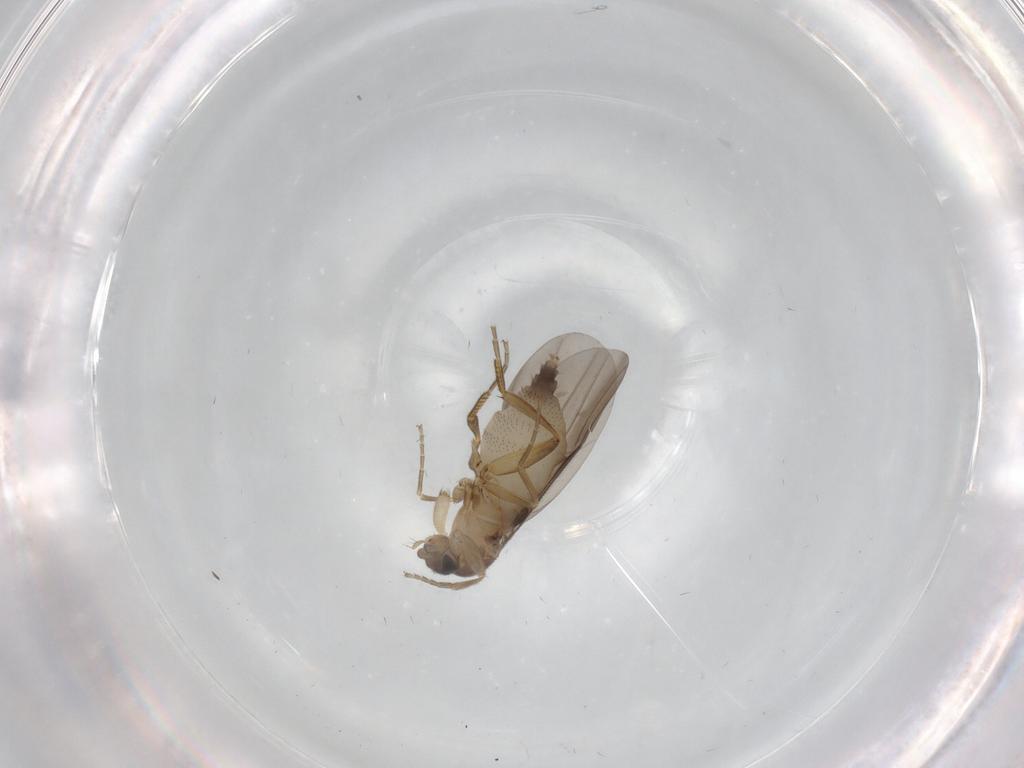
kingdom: Animalia
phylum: Arthropoda
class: Insecta
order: Diptera
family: Phoridae
